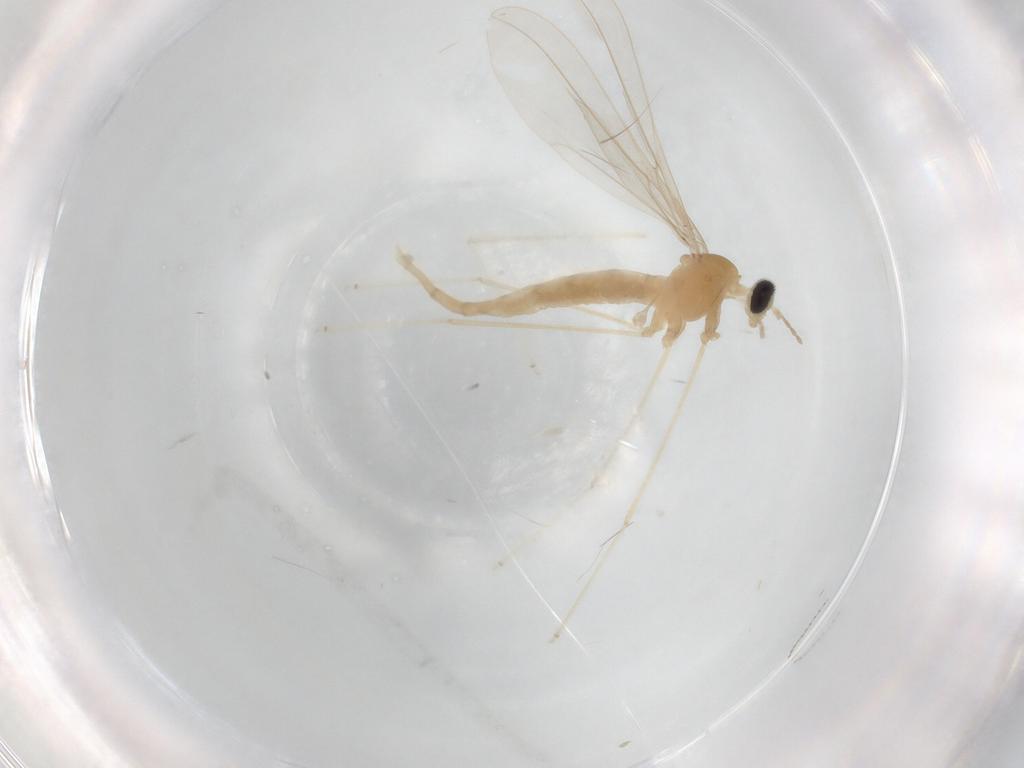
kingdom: Animalia
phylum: Arthropoda
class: Insecta
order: Diptera
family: Cecidomyiidae
